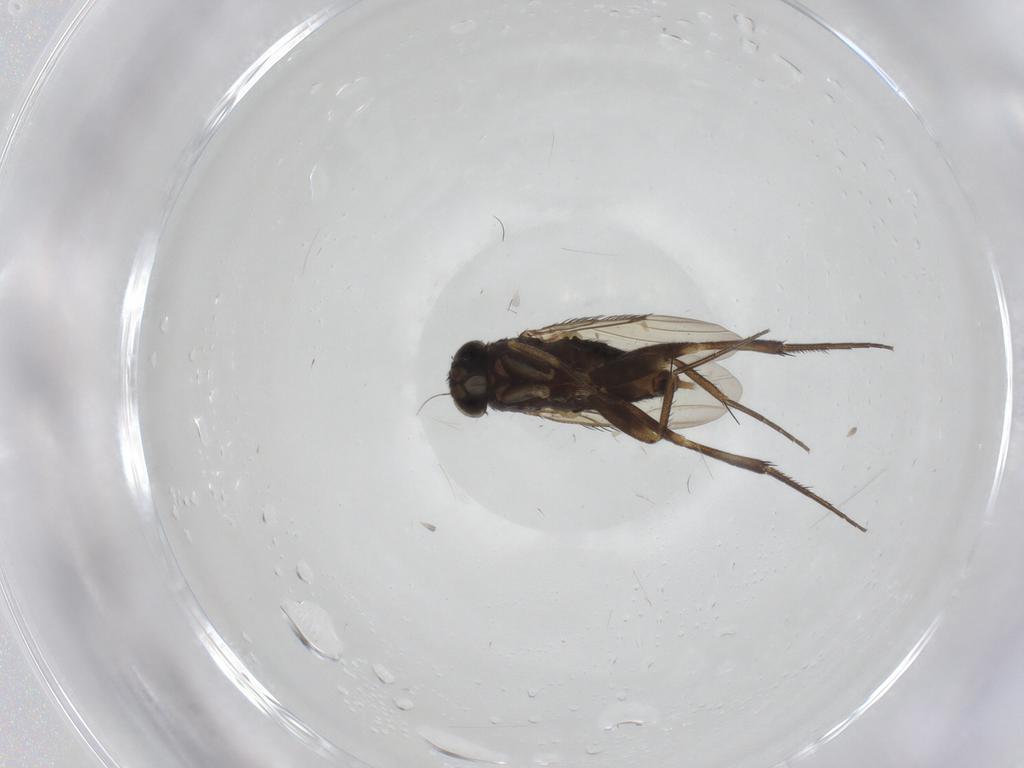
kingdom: Animalia
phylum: Arthropoda
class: Insecta
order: Diptera
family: Phoridae
